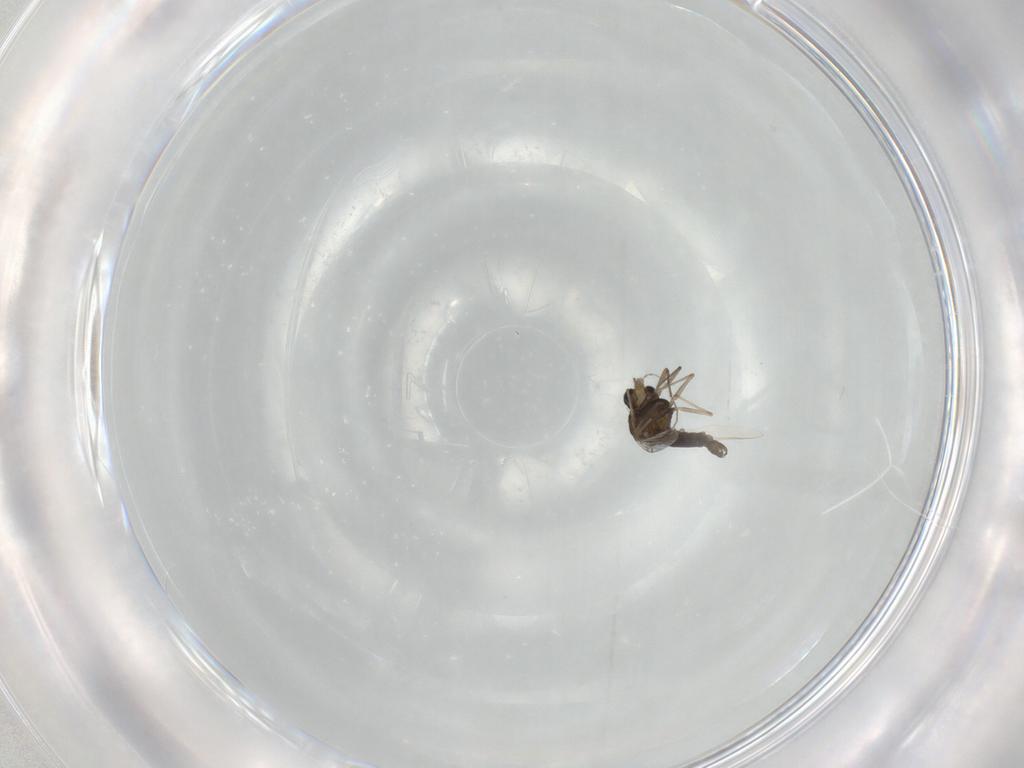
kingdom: Animalia
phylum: Arthropoda
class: Insecta
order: Diptera
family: Chironomidae
